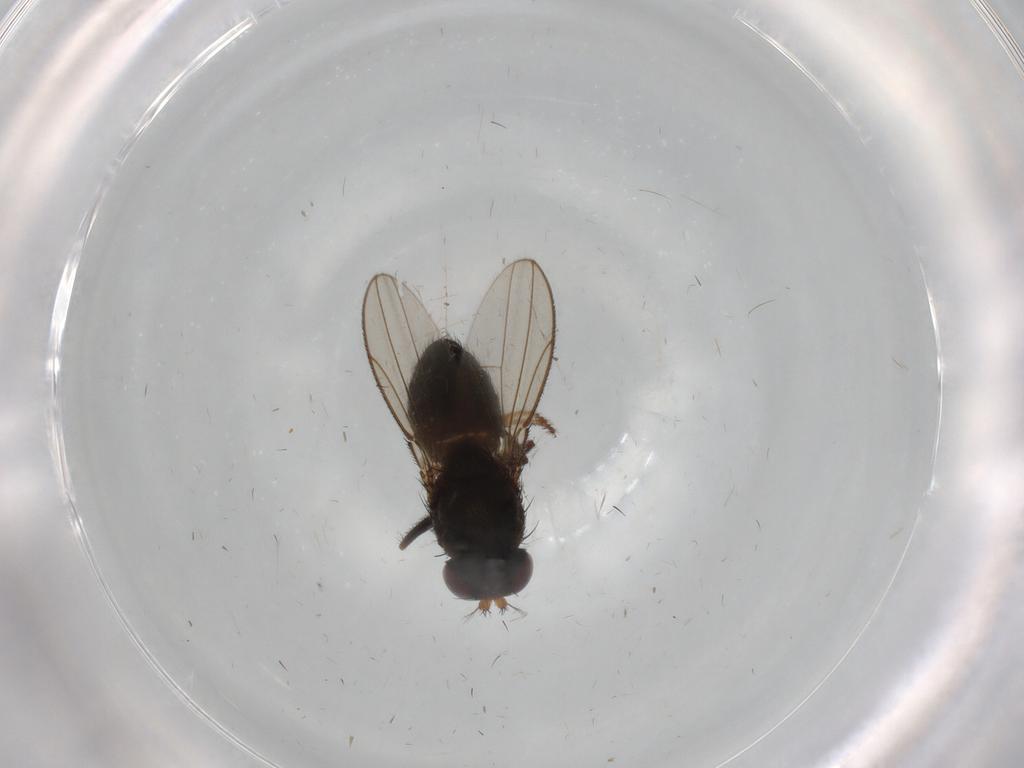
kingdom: Animalia
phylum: Arthropoda
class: Insecta
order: Diptera
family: Ephydridae
